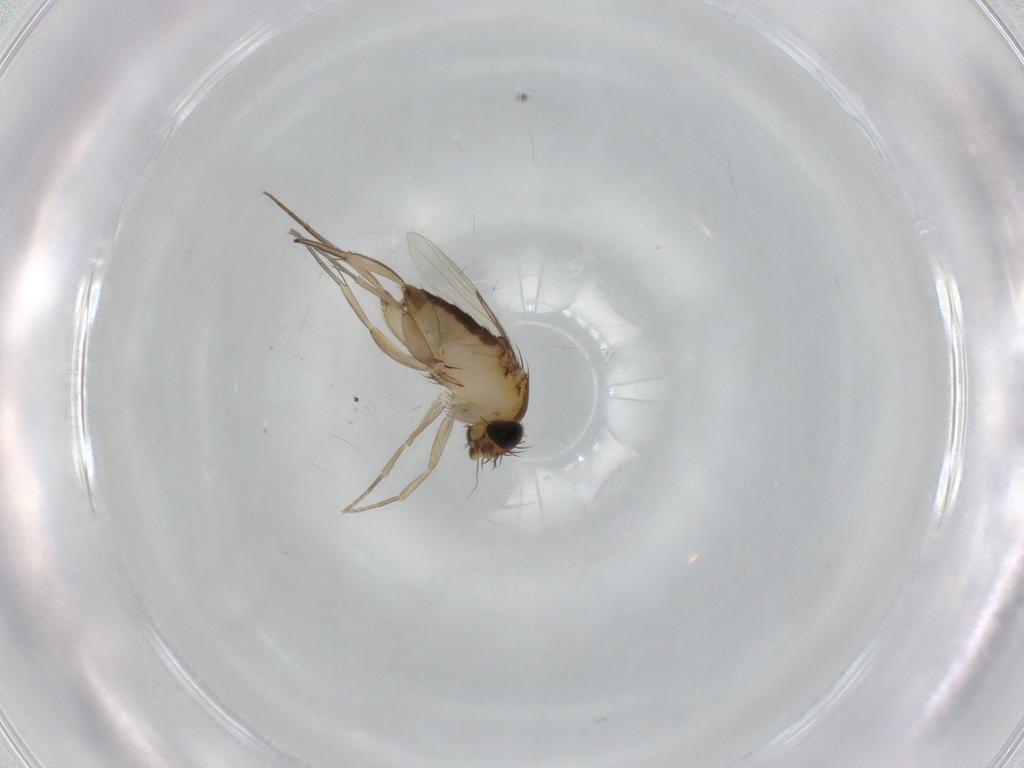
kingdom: Animalia
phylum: Arthropoda
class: Insecta
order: Diptera
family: Phoridae
